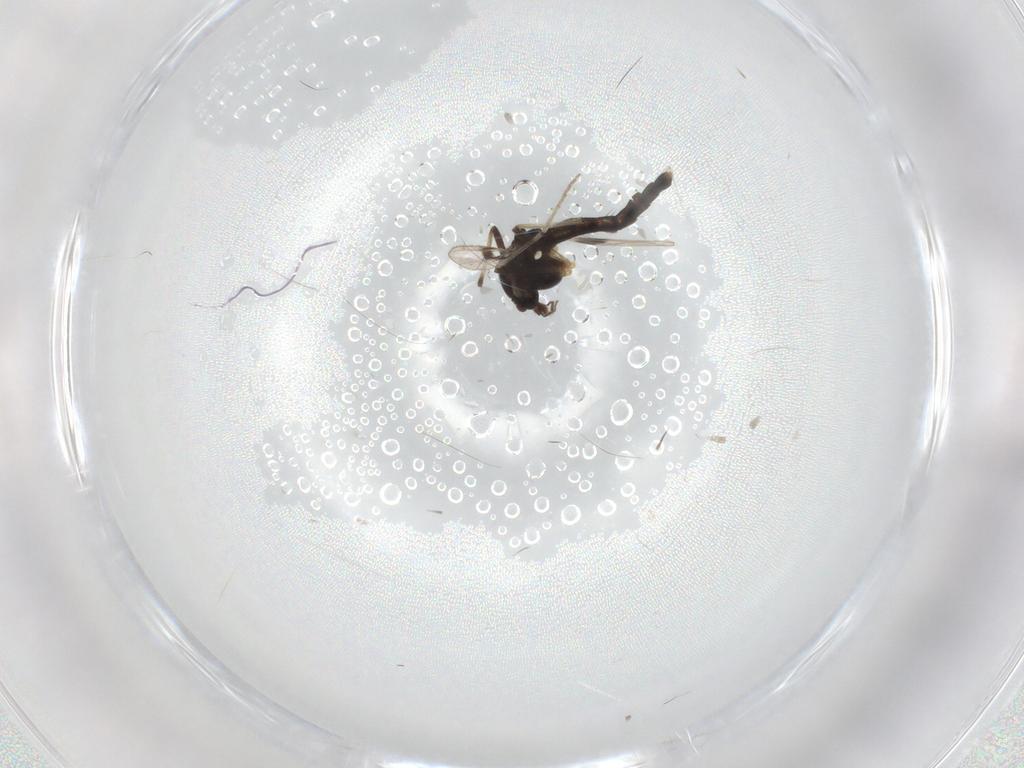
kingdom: Animalia
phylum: Arthropoda
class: Insecta
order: Diptera
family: Chironomidae
